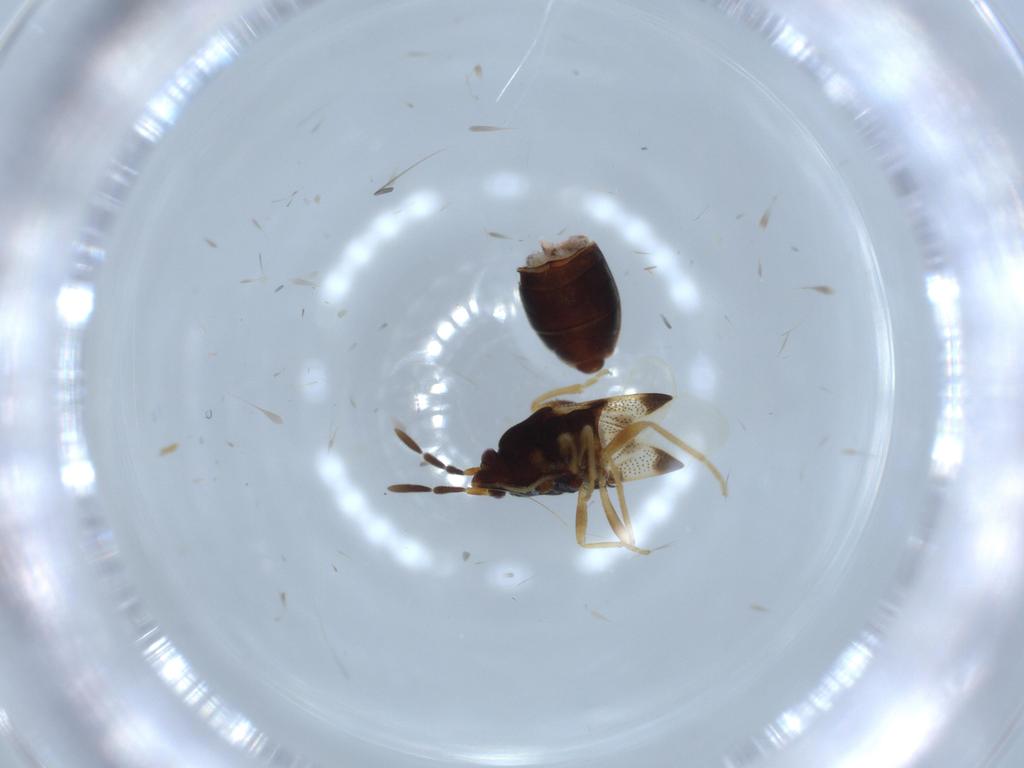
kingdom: Animalia
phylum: Arthropoda
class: Insecta
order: Hemiptera
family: Rhyparochromidae
